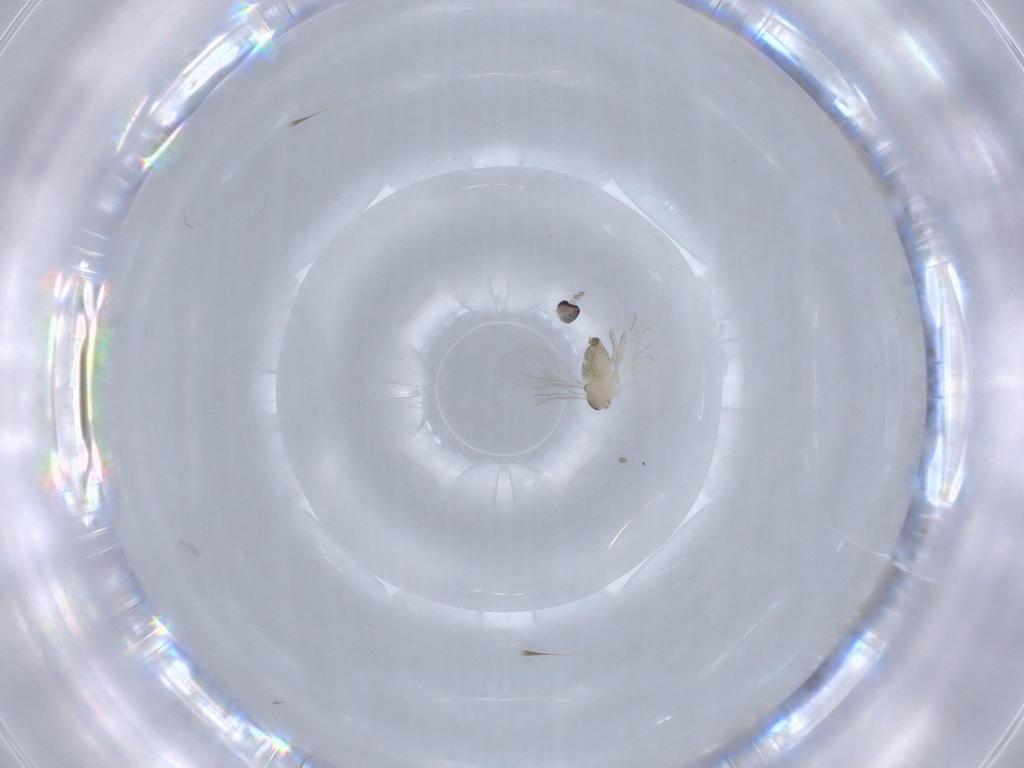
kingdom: Animalia
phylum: Arthropoda
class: Insecta
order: Diptera
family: Cecidomyiidae
